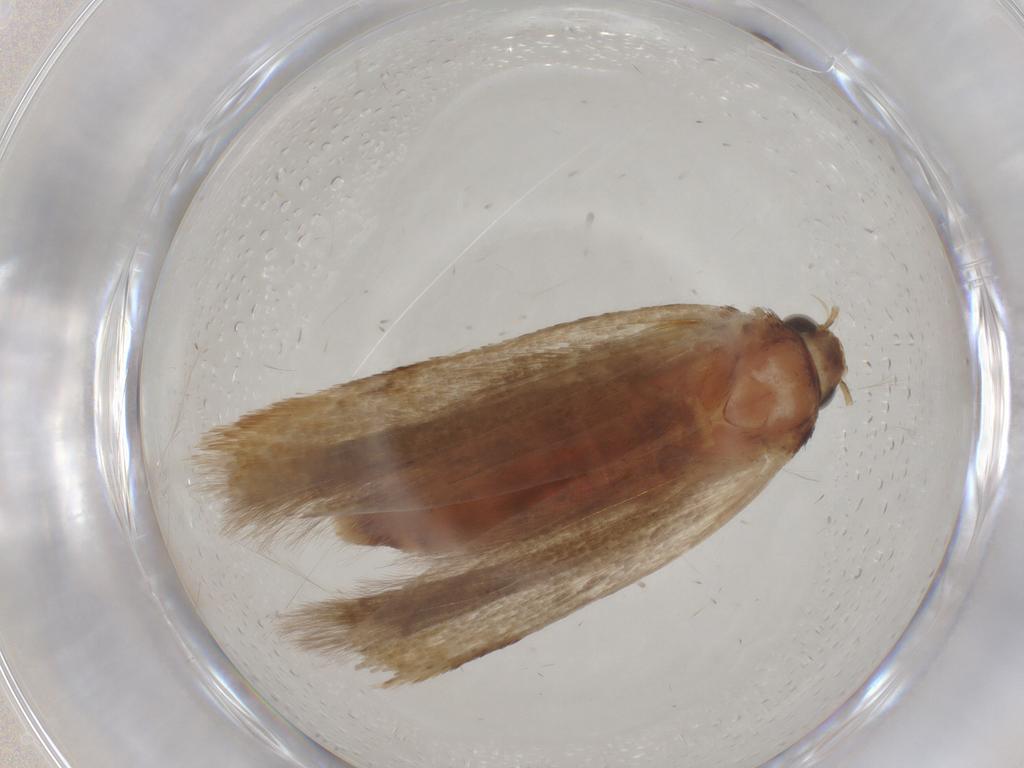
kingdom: Animalia
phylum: Arthropoda
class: Insecta
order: Lepidoptera
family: Gelechiidae
